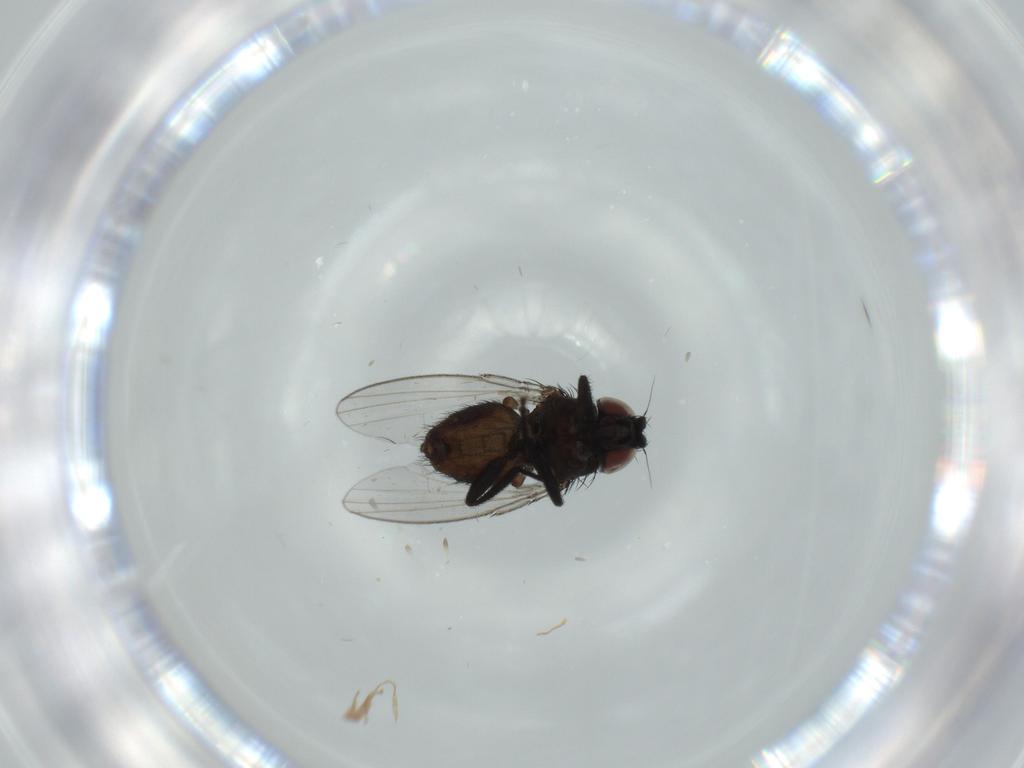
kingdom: Animalia
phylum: Arthropoda
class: Insecta
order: Diptera
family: Milichiidae
